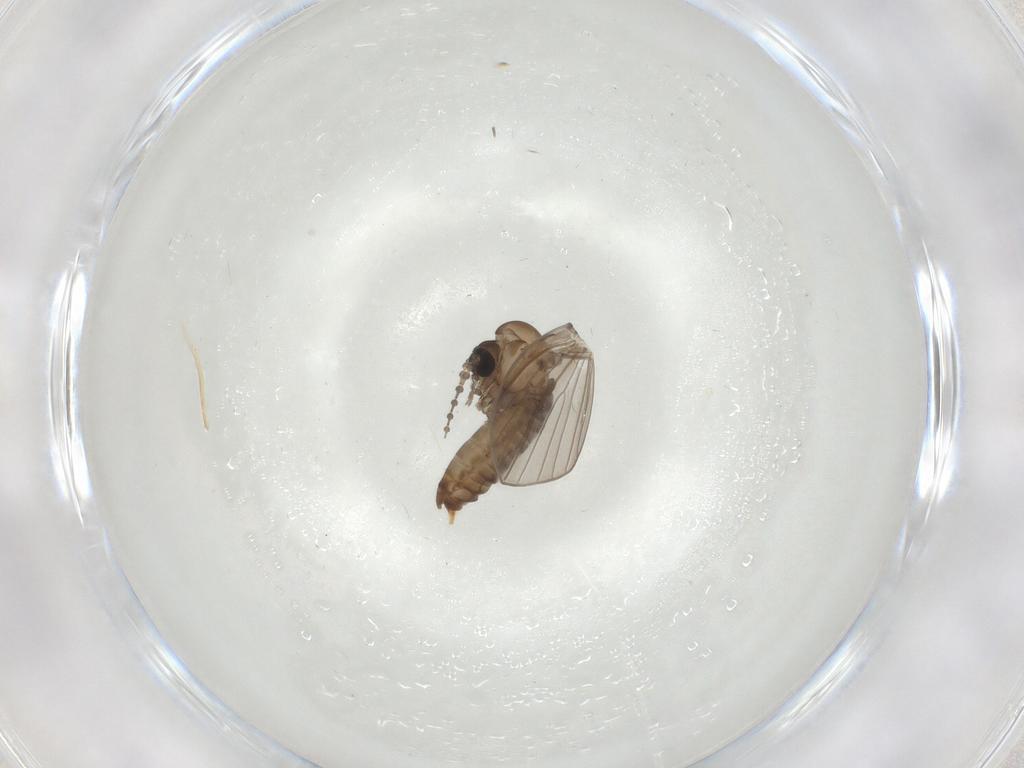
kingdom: Animalia
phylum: Arthropoda
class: Insecta
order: Diptera
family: Psychodidae
